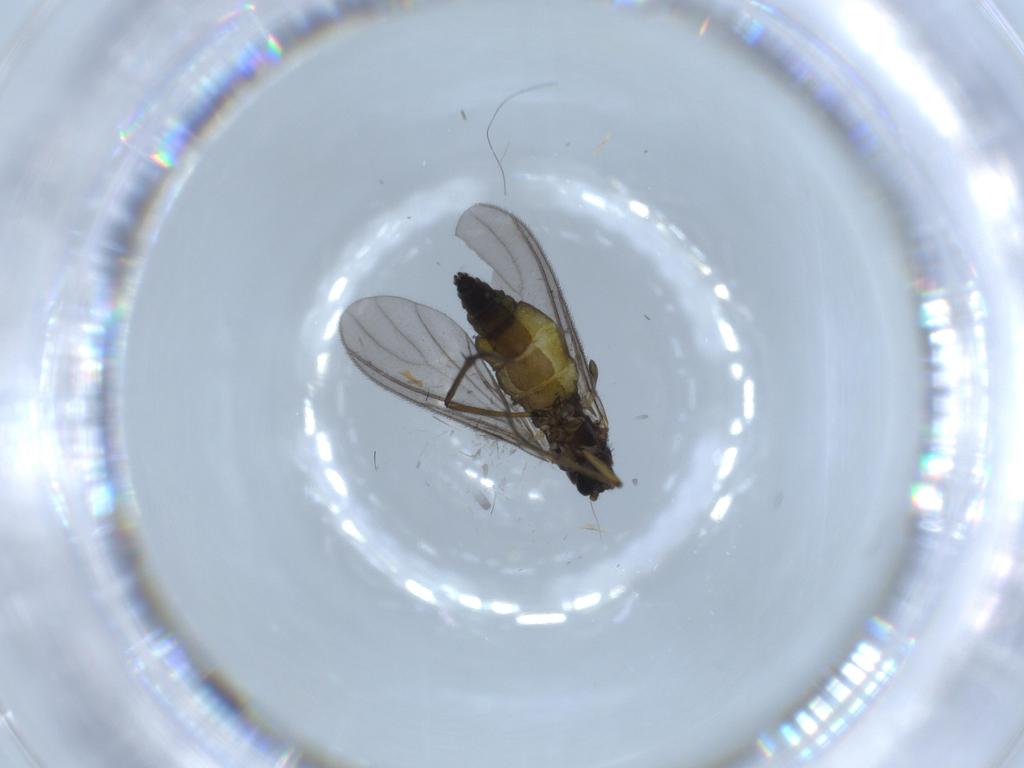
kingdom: Animalia
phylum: Arthropoda
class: Insecta
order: Diptera
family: Sciaridae
